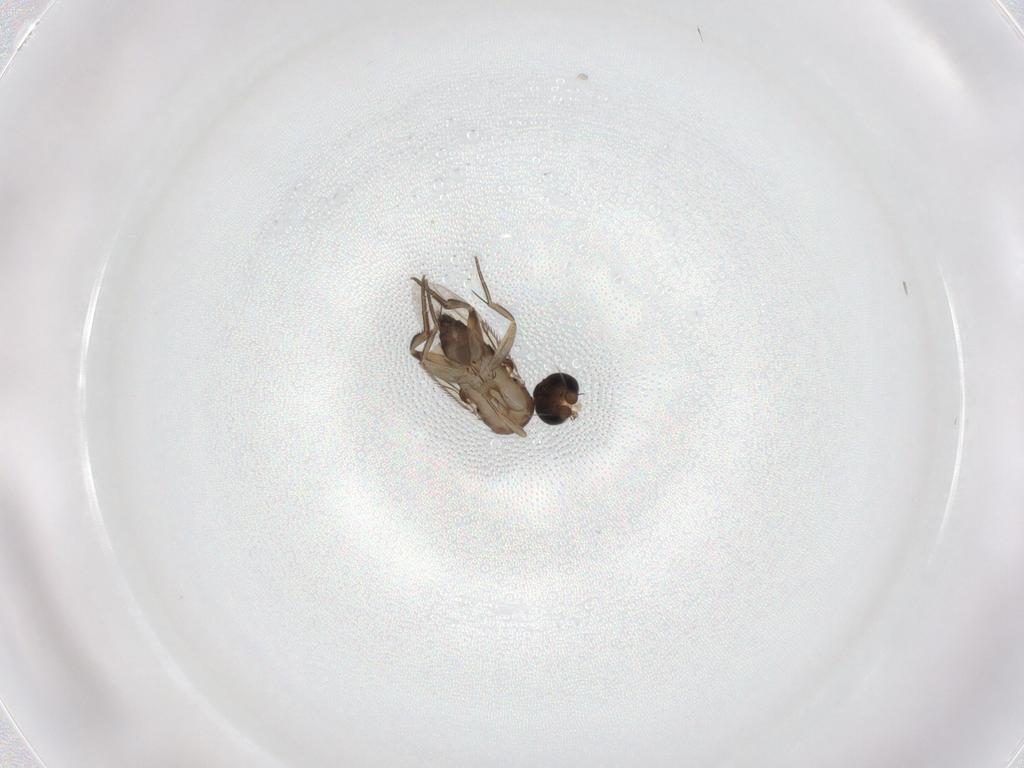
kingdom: Animalia
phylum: Arthropoda
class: Insecta
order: Diptera
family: Phoridae
